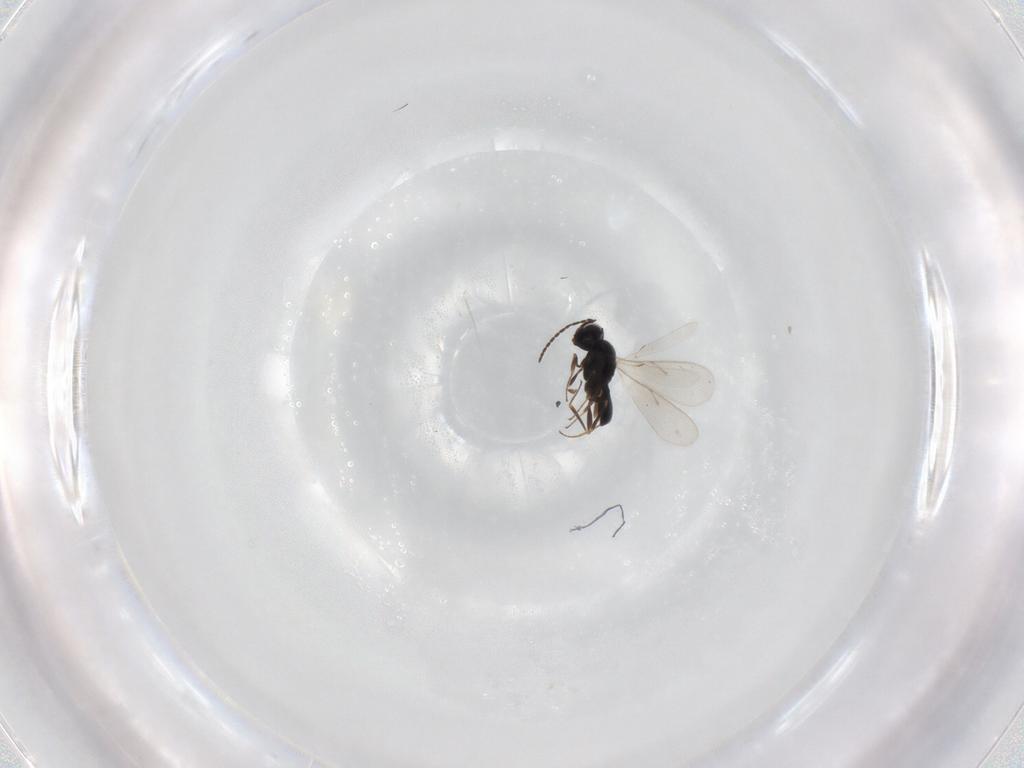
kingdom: Animalia
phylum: Arthropoda
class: Insecta
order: Hymenoptera
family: Scelionidae
